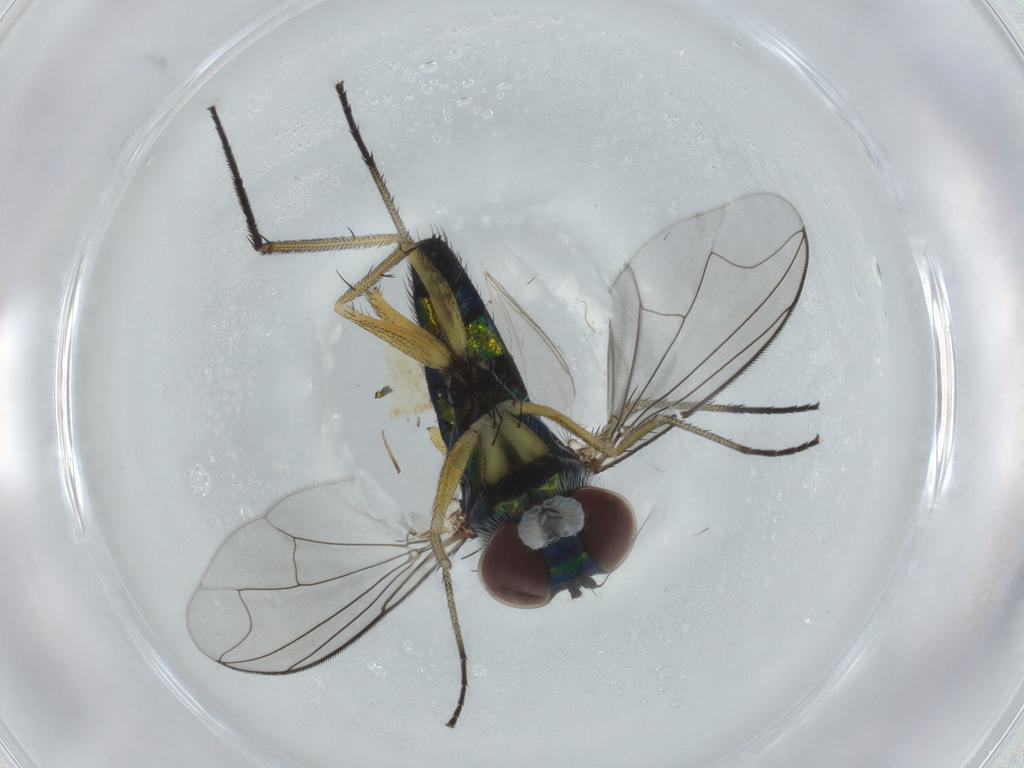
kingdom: Animalia
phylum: Arthropoda
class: Insecta
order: Diptera
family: Dolichopodidae
